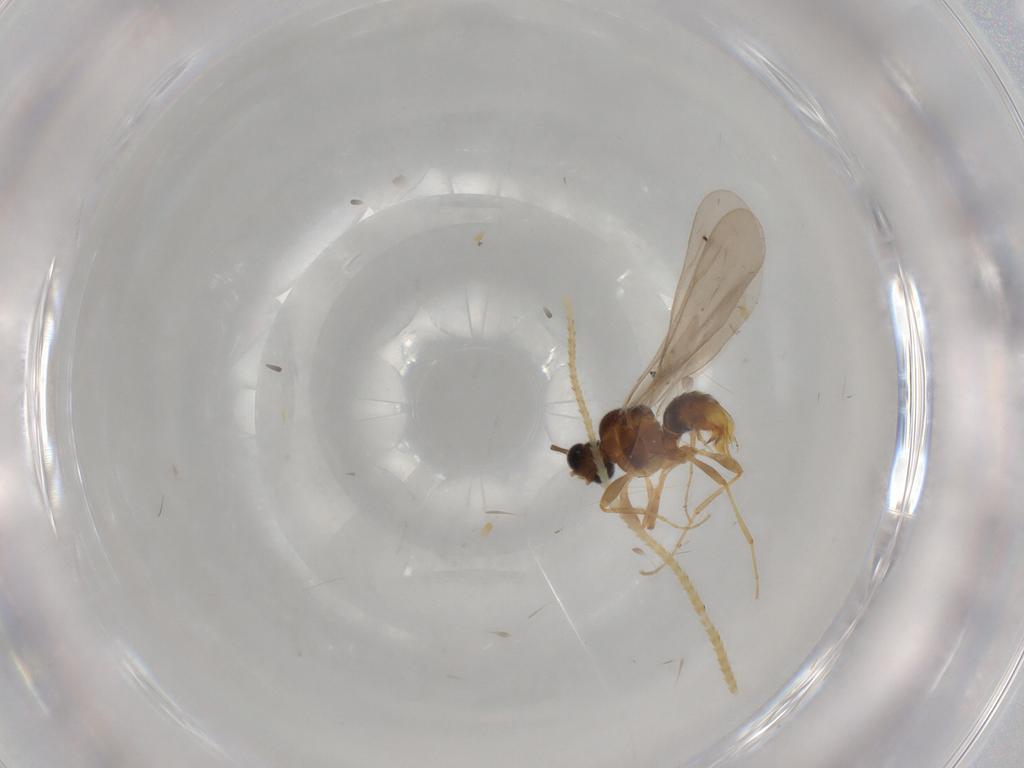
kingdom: Animalia
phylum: Arthropoda
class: Insecta
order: Hymenoptera
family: Formicidae
